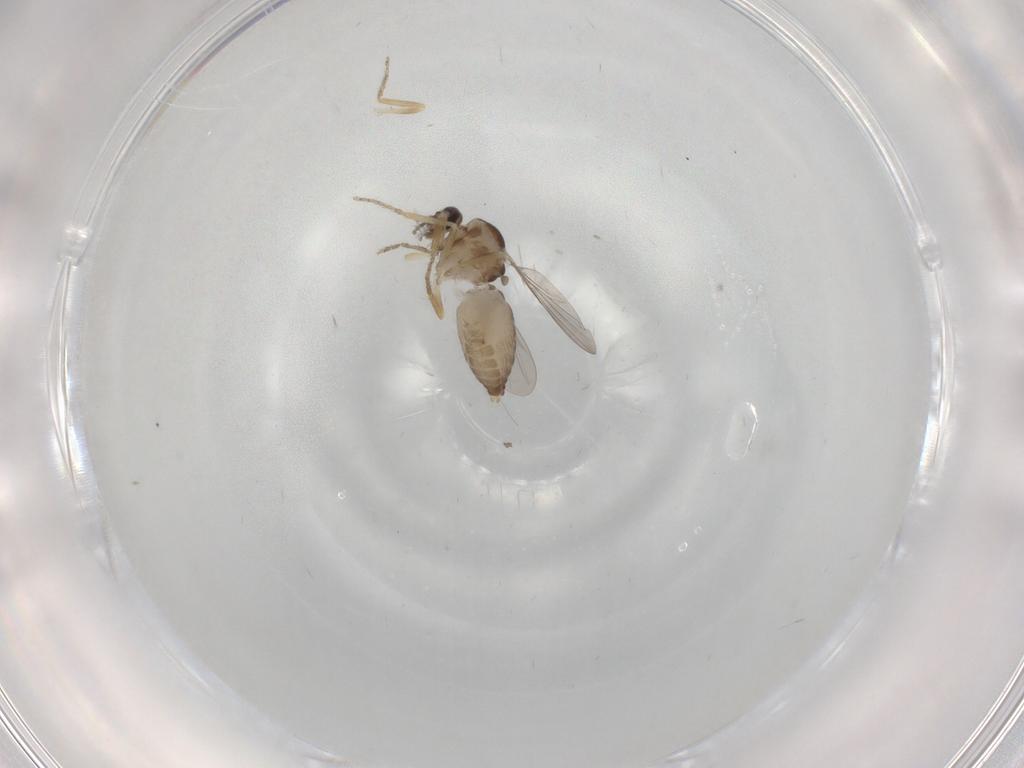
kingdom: Animalia
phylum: Arthropoda
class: Insecta
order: Diptera
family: Ceratopogonidae
